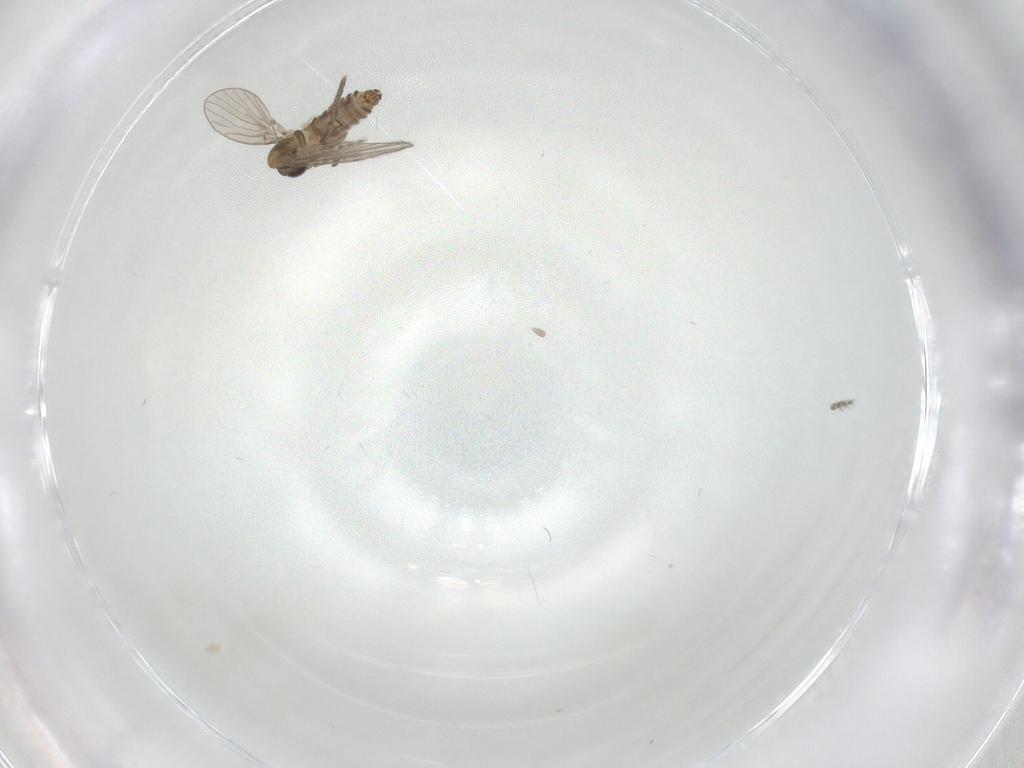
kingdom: Animalia
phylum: Arthropoda
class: Insecta
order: Diptera
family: Psychodidae
